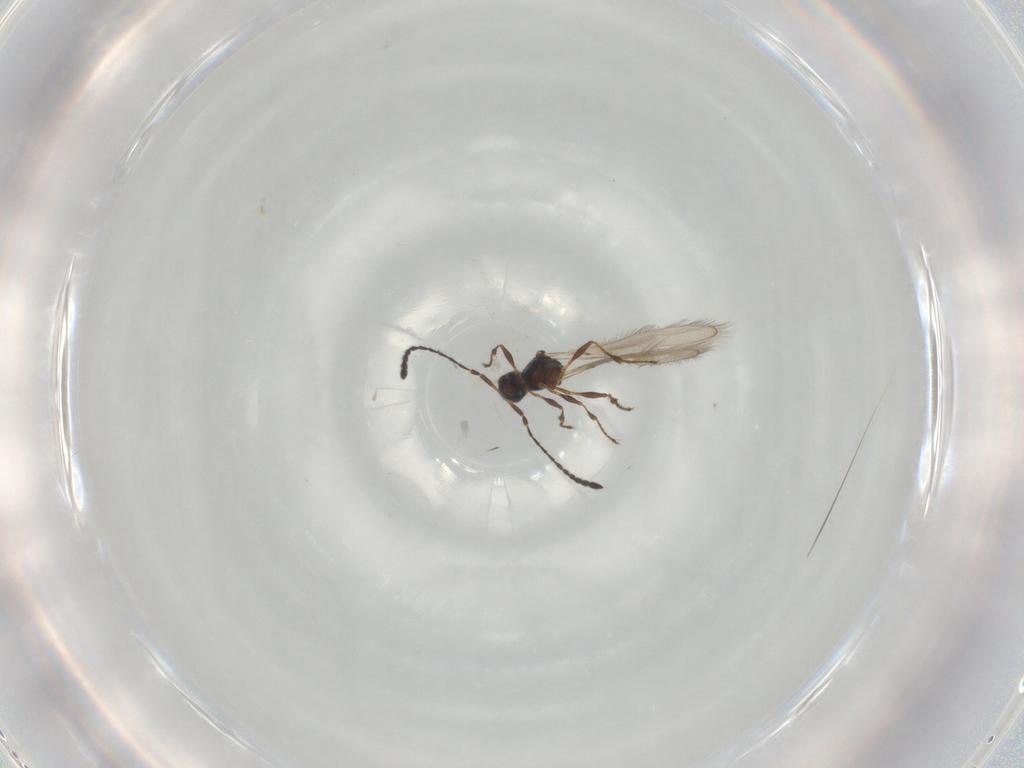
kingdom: Animalia
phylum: Arthropoda
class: Insecta
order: Hymenoptera
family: Diapriidae
